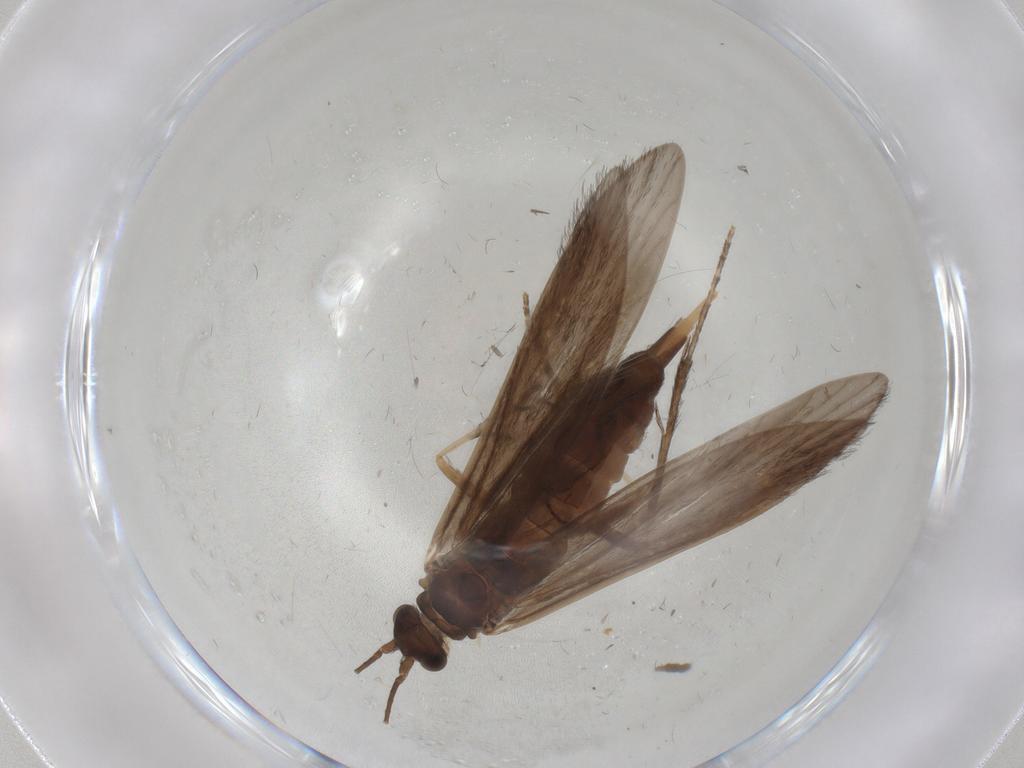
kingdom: Animalia
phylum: Arthropoda
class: Insecta
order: Trichoptera
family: Xiphocentronidae
